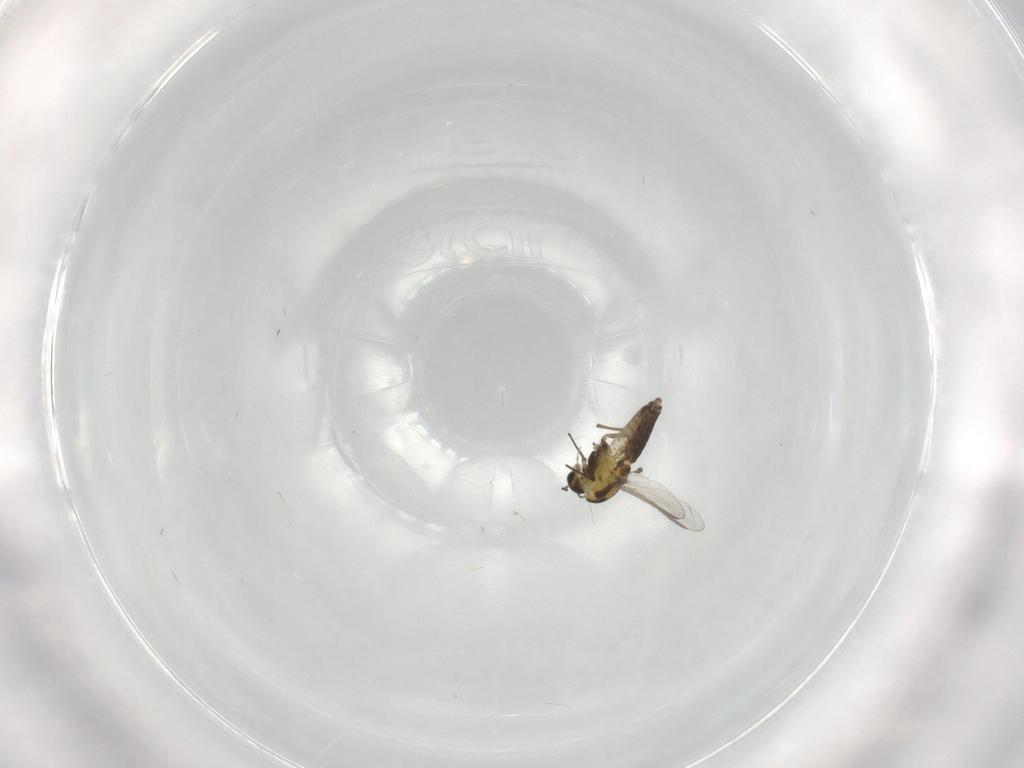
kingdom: Animalia
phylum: Arthropoda
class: Insecta
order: Diptera
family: Chironomidae
